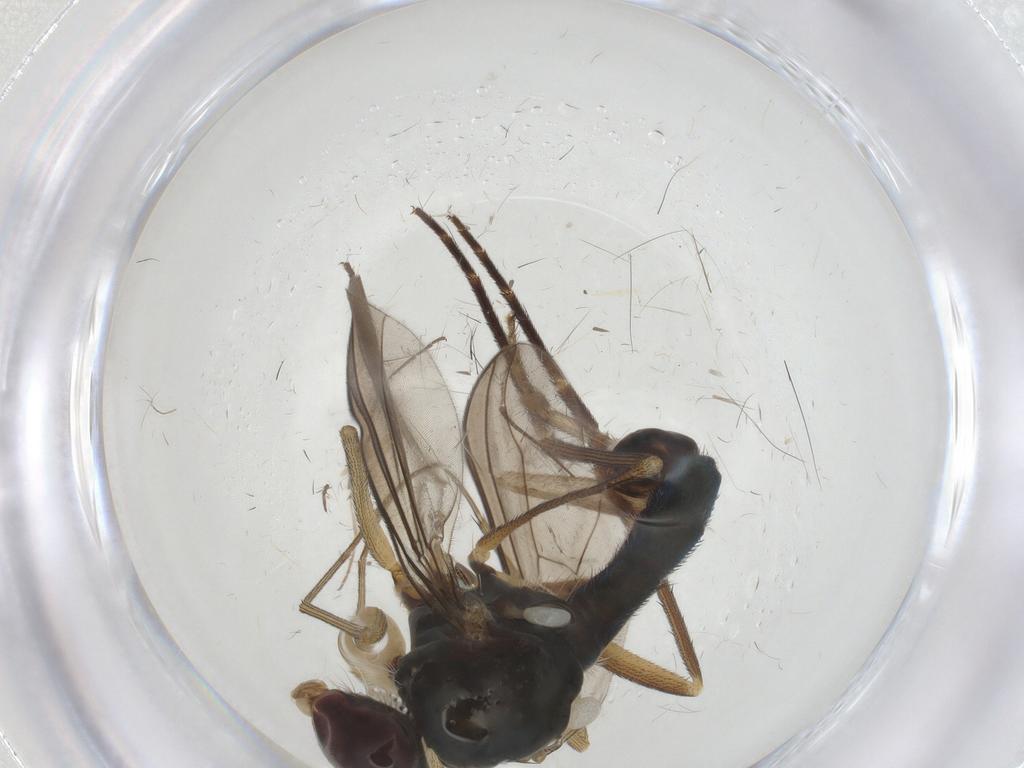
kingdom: Animalia
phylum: Arthropoda
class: Insecta
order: Diptera
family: Dolichopodidae
